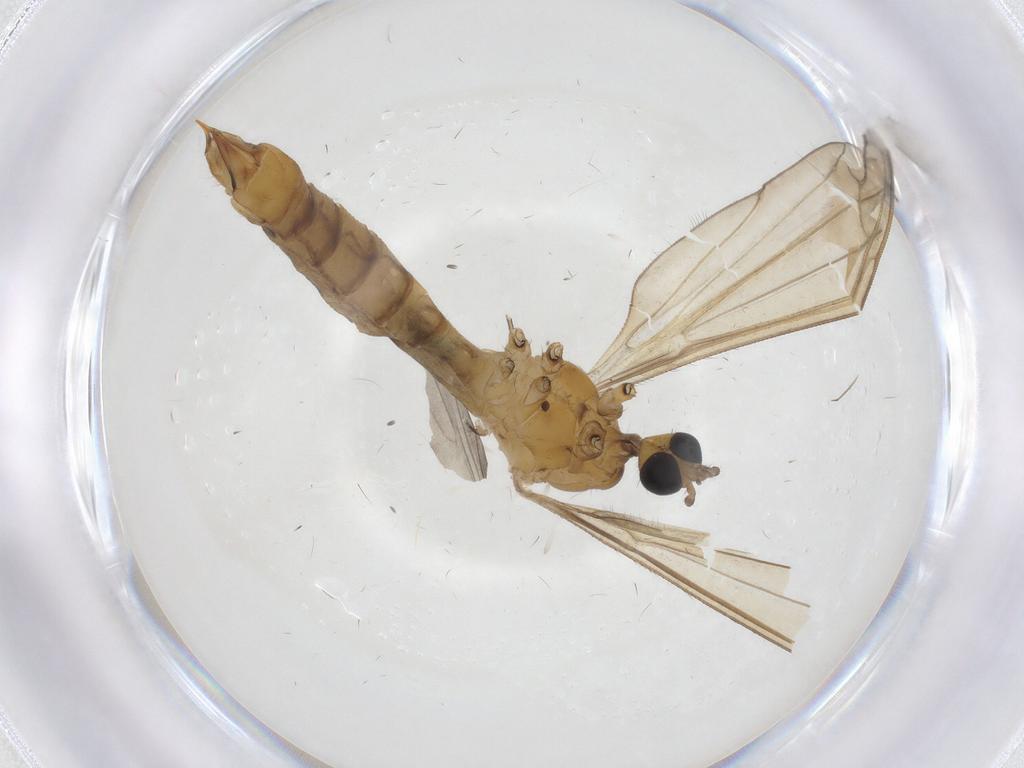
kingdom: Animalia
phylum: Arthropoda
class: Insecta
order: Diptera
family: Limoniidae
